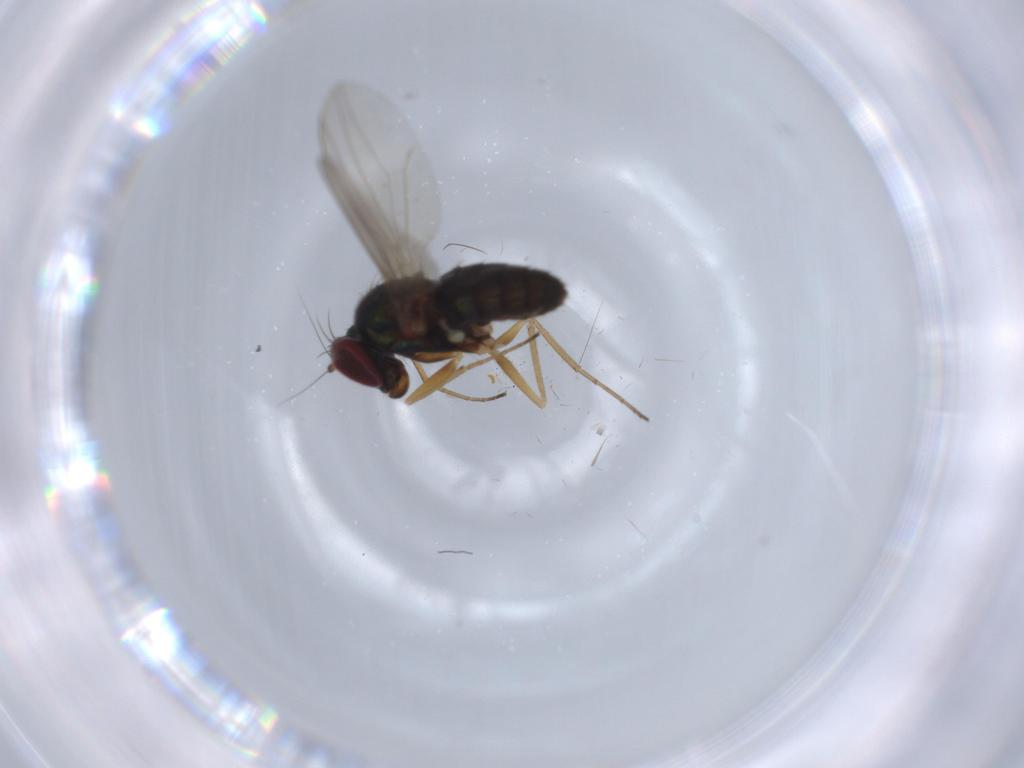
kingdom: Animalia
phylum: Arthropoda
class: Insecta
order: Diptera
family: Dolichopodidae
